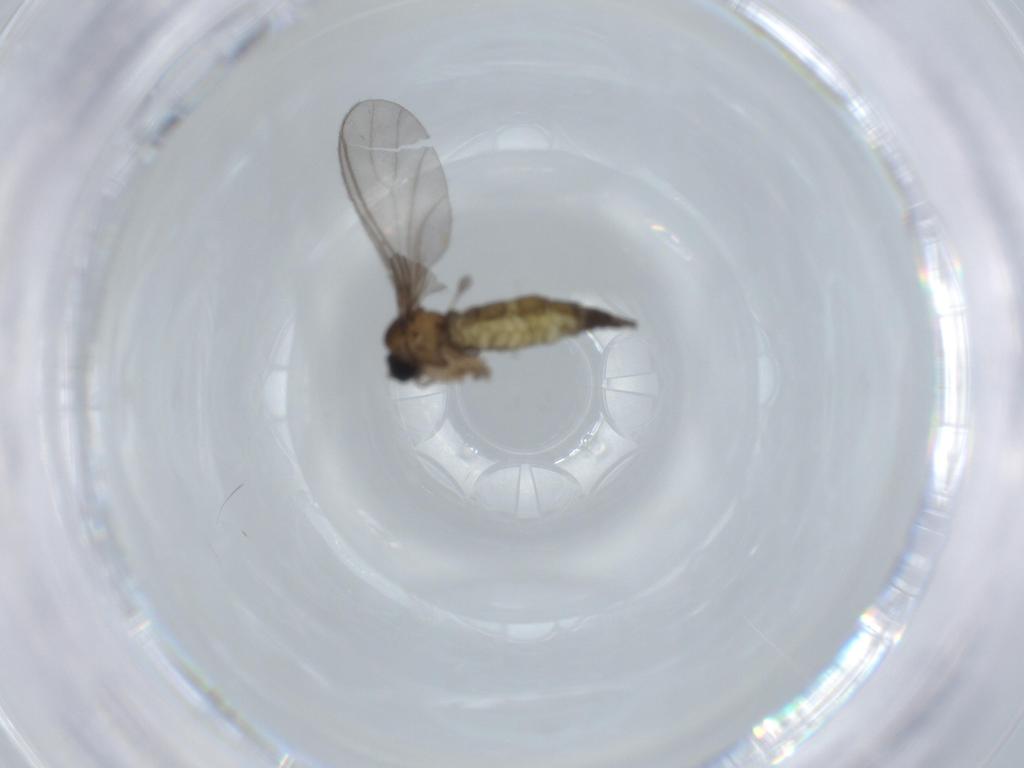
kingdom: Animalia
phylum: Arthropoda
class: Insecta
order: Diptera
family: Sciaridae
